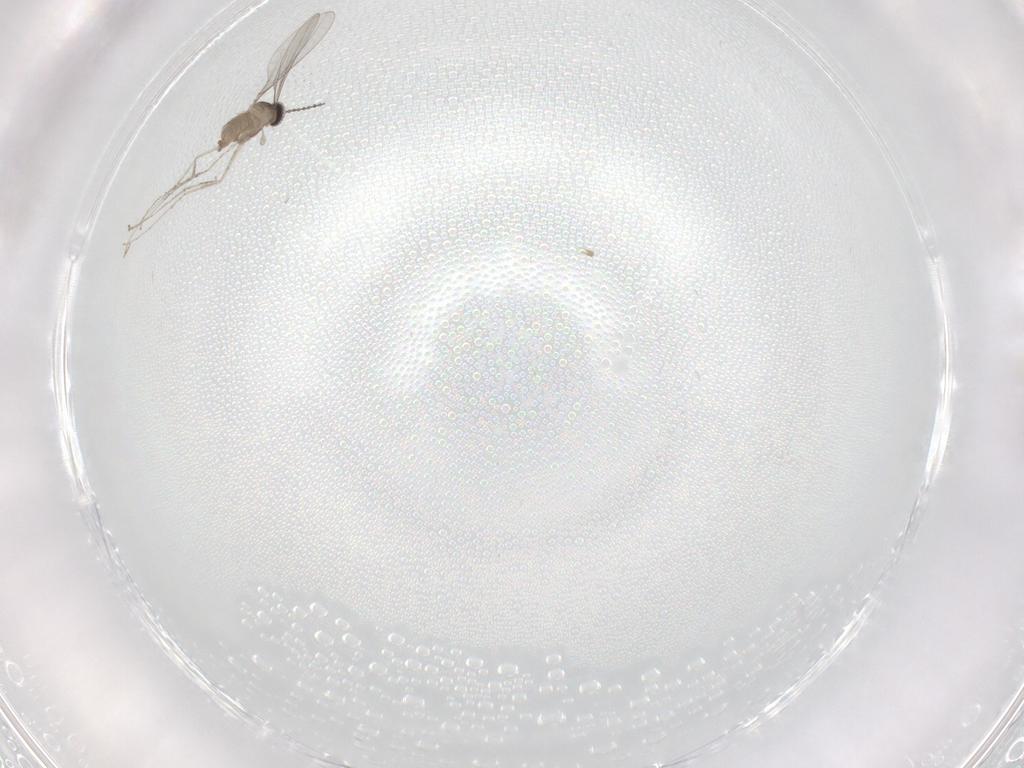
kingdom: Animalia
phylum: Arthropoda
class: Insecta
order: Diptera
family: Cecidomyiidae
